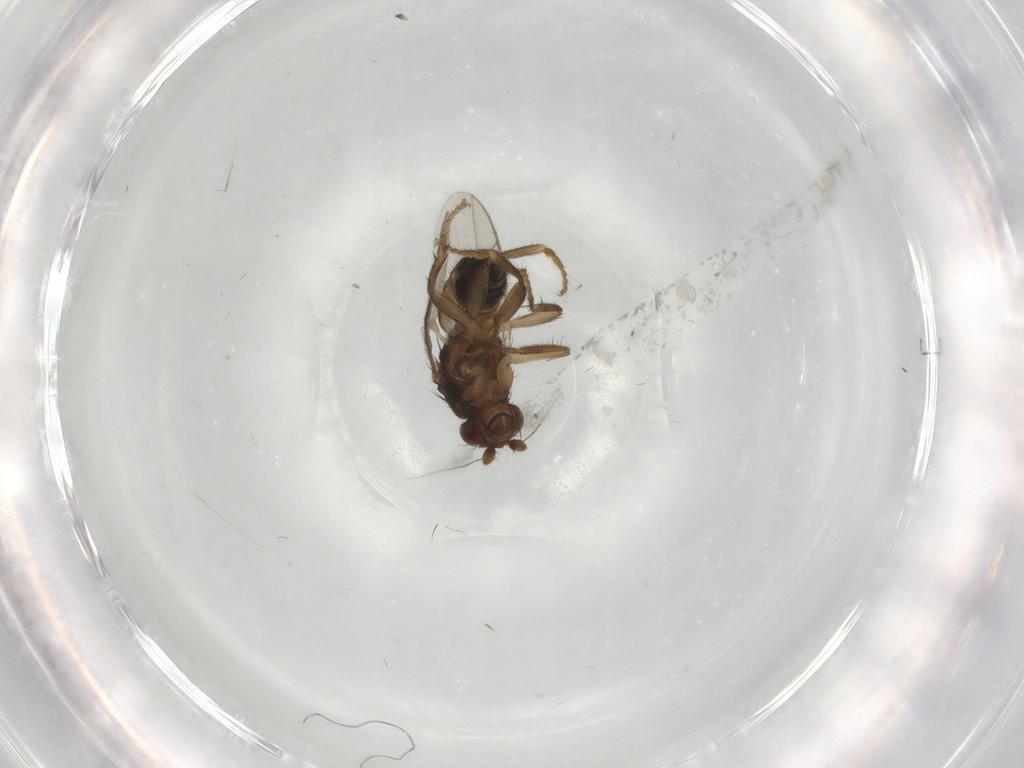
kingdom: Animalia
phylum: Arthropoda
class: Insecta
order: Diptera
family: Sphaeroceridae
